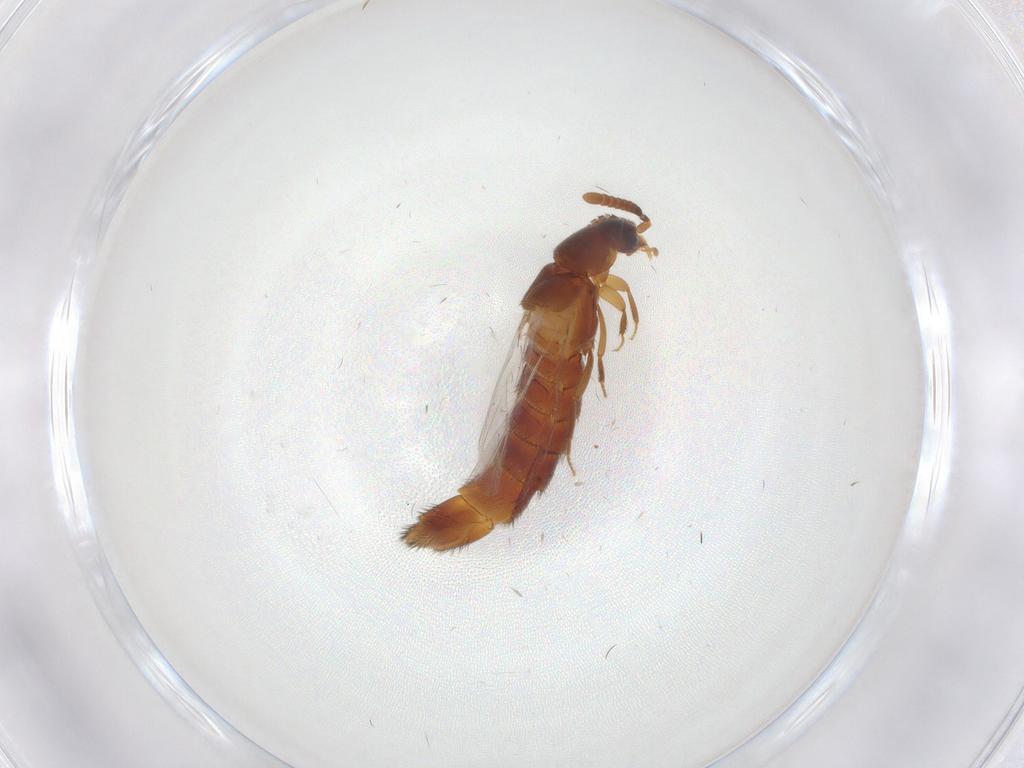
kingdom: Animalia
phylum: Arthropoda
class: Insecta
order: Coleoptera
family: Staphylinidae
